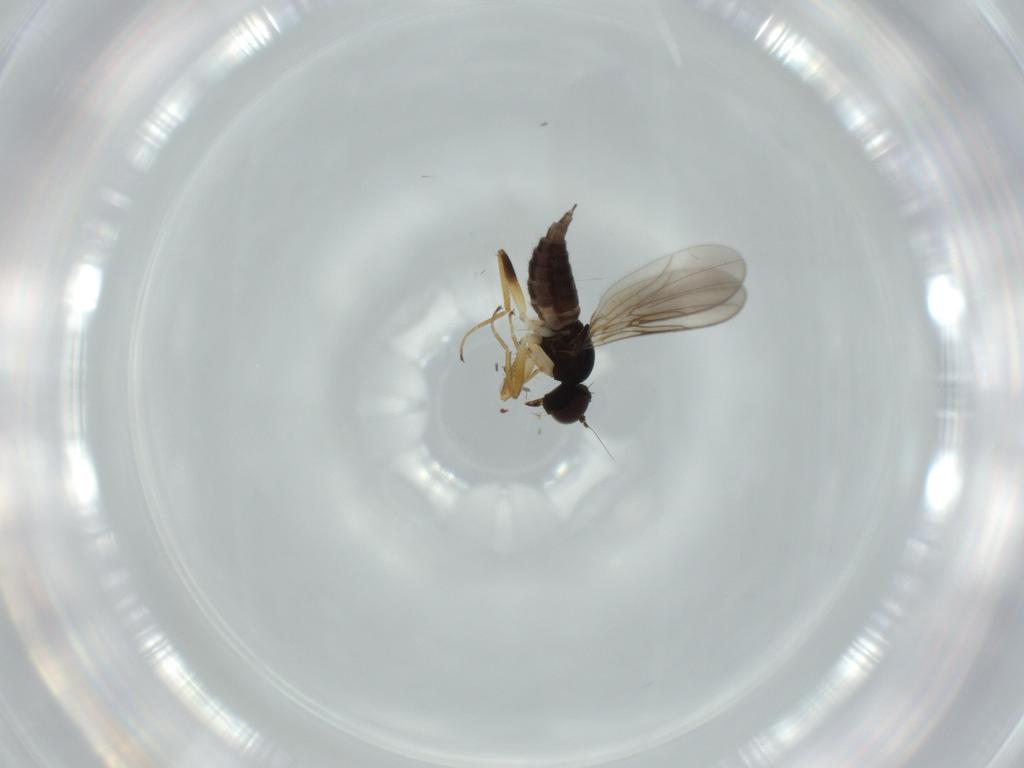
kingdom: Animalia
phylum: Arthropoda
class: Insecta
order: Diptera
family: Hybotidae
